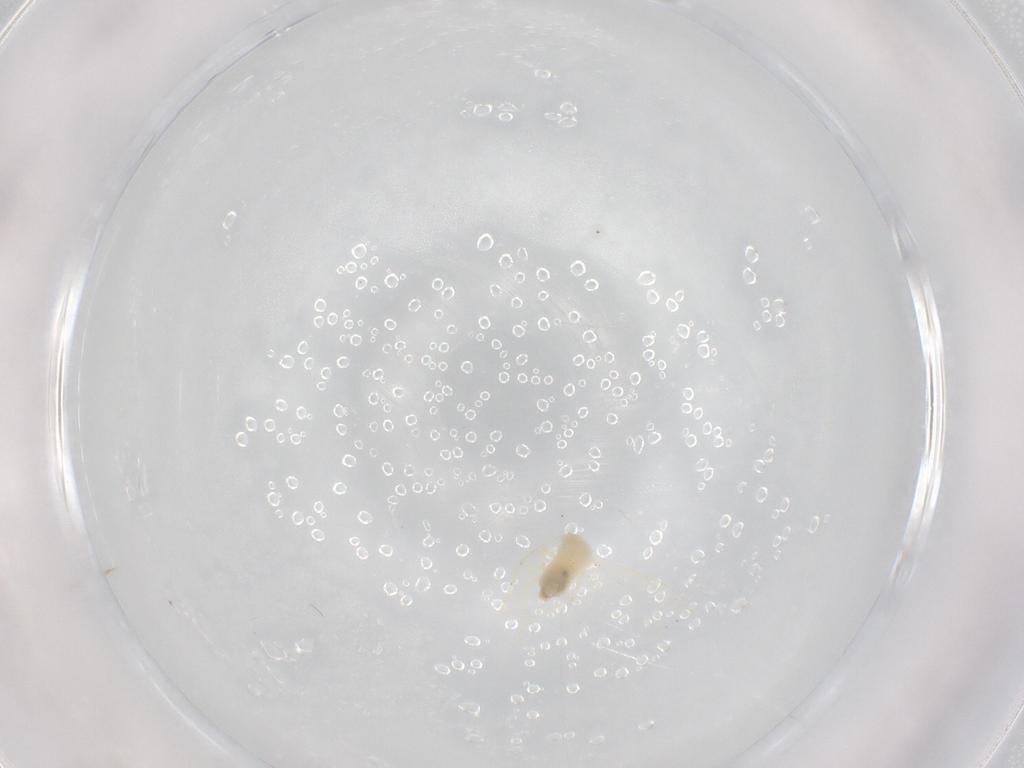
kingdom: Animalia
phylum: Arthropoda
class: Insecta
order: Hemiptera
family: Aleyrodidae
